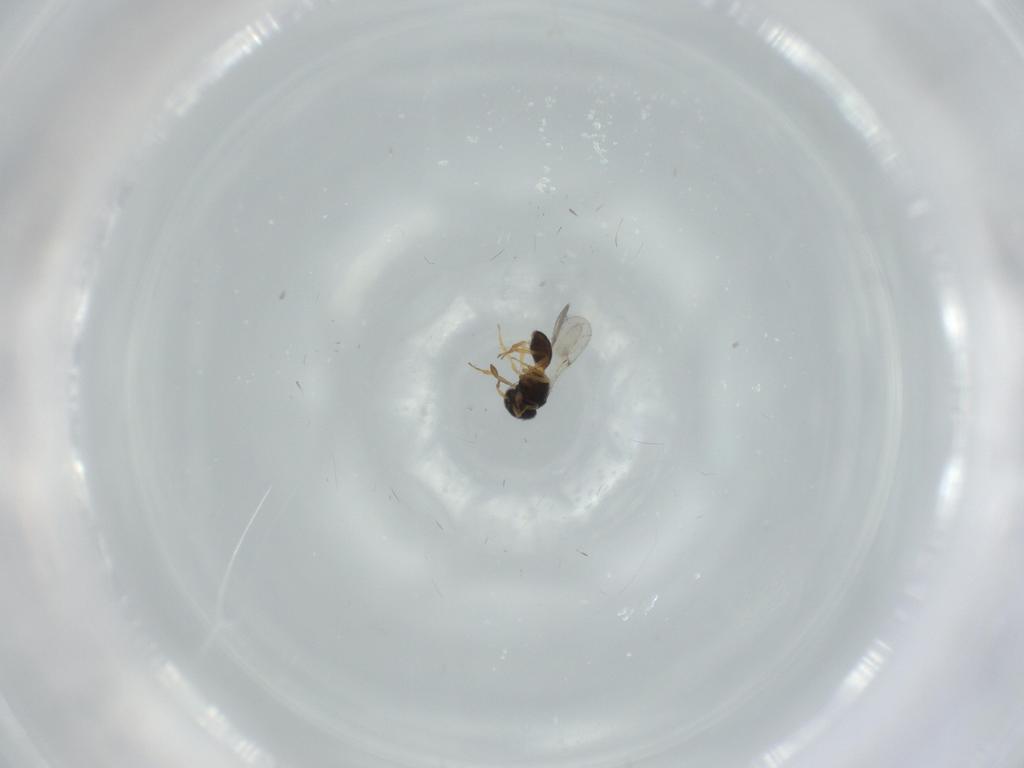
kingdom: Animalia
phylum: Arthropoda
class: Insecta
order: Hymenoptera
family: Scelionidae
